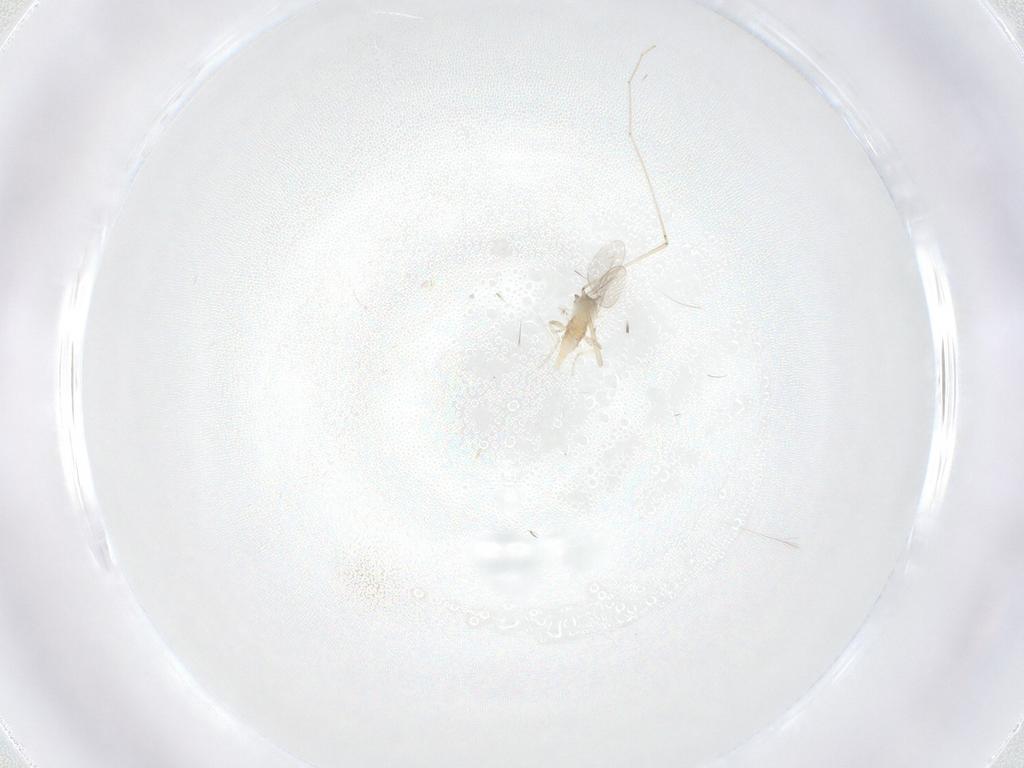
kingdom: Animalia
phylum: Arthropoda
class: Insecta
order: Diptera
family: Cecidomyiidae
